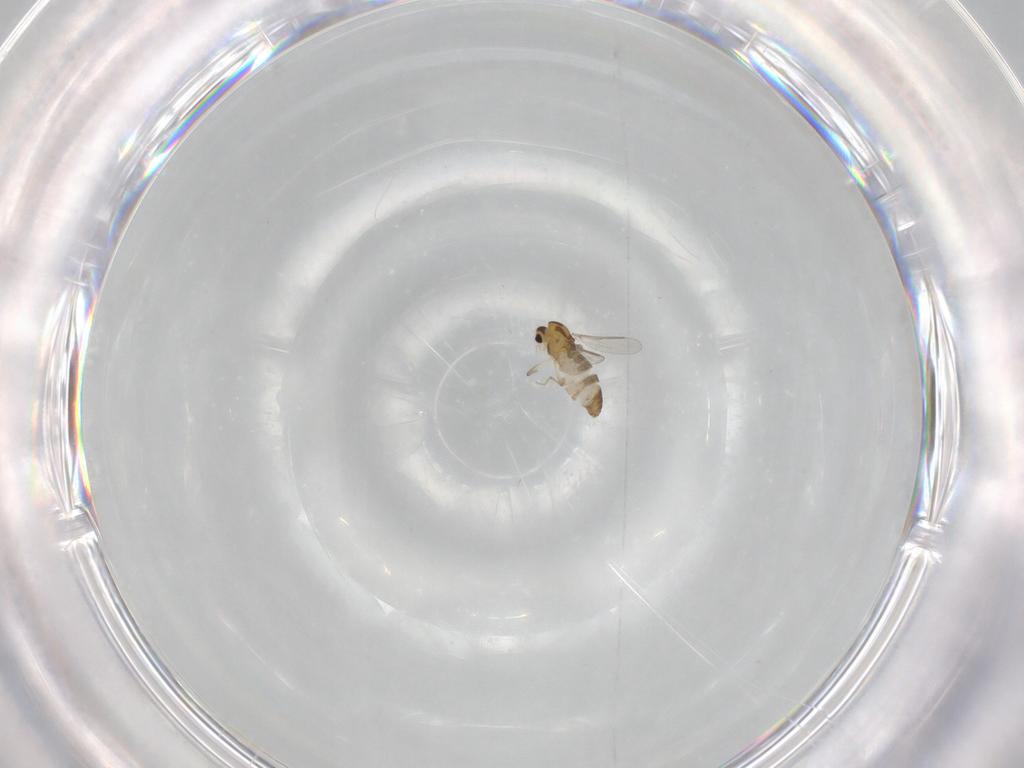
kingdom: Animalia
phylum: Arthropoda
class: Insecta
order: Diptera
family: Chironomidae
